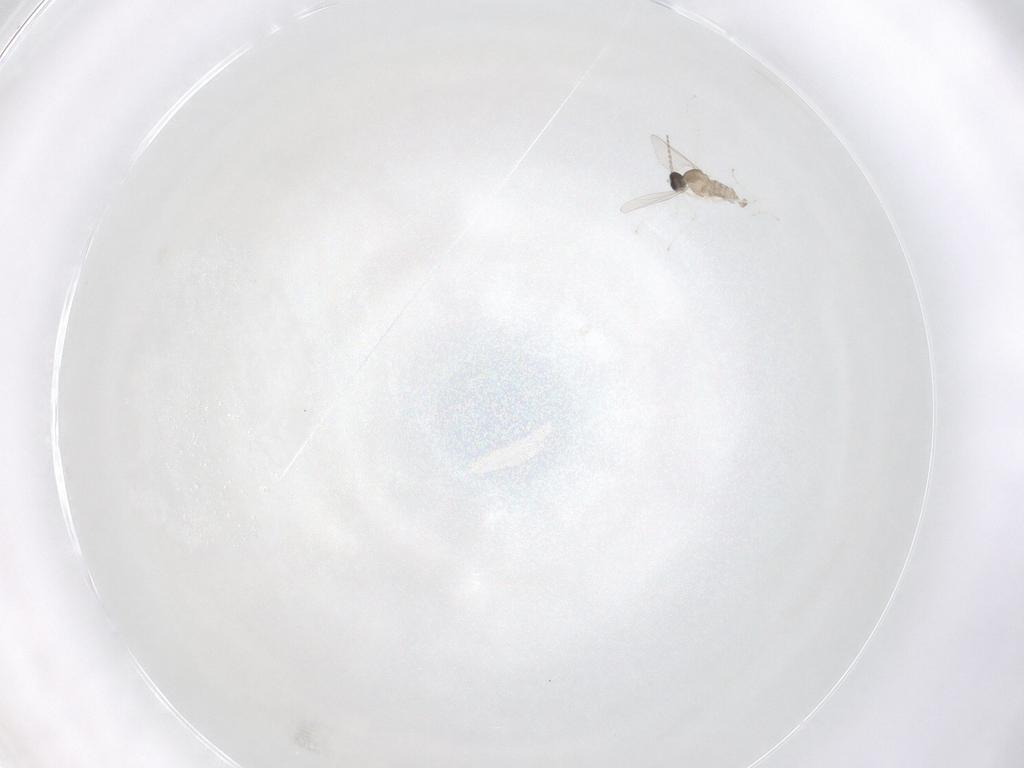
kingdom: Animalia
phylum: Arthropoda
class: Insecta
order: Diptera
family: Cecidomyiidae
